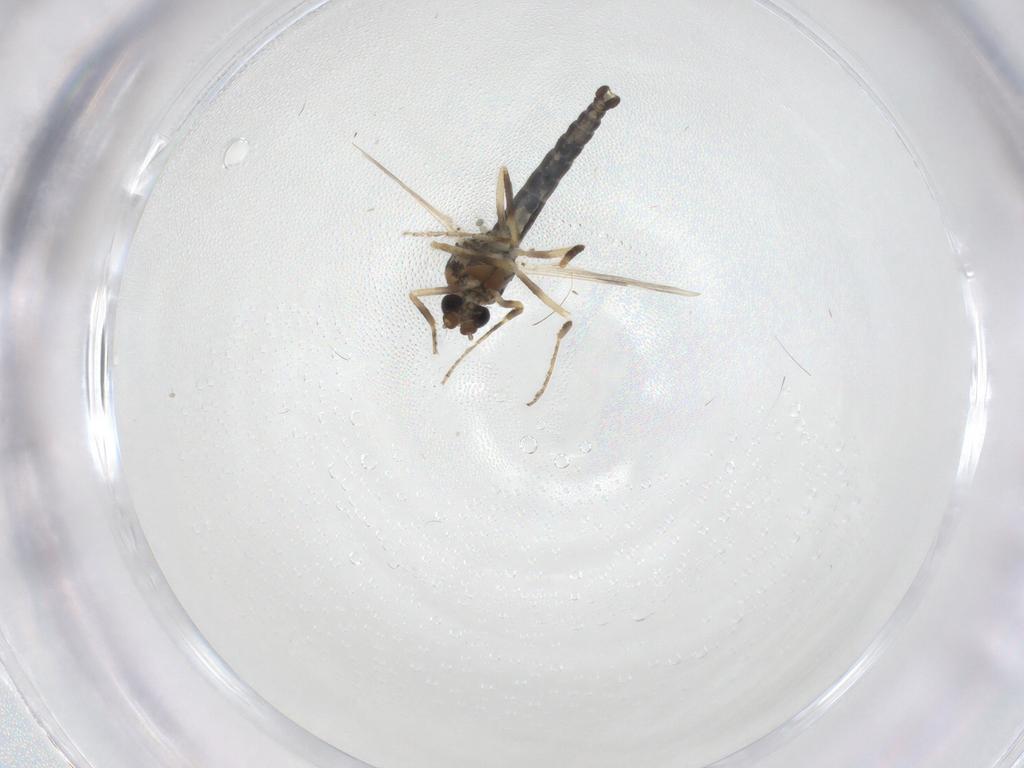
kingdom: Animalia
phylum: Arthropoda
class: Insecta
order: Diptera
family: Ceratopogonidae
